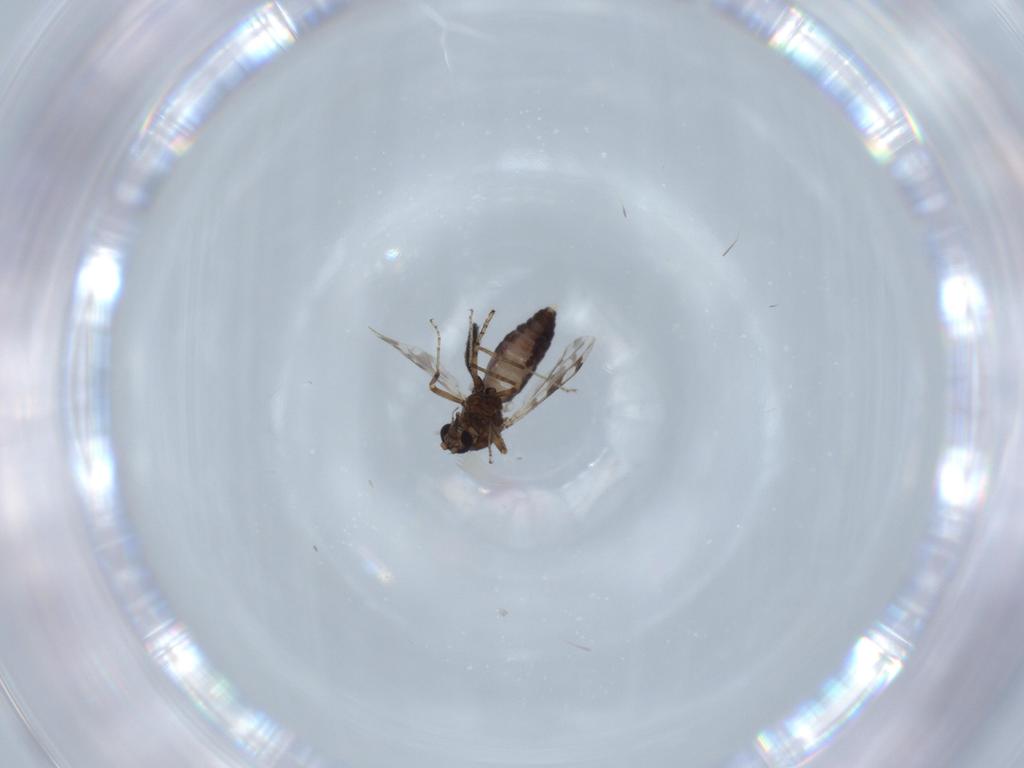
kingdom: Animalia
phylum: Arthropoda
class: Insecta
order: Diptera
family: Ceratopogonidae
